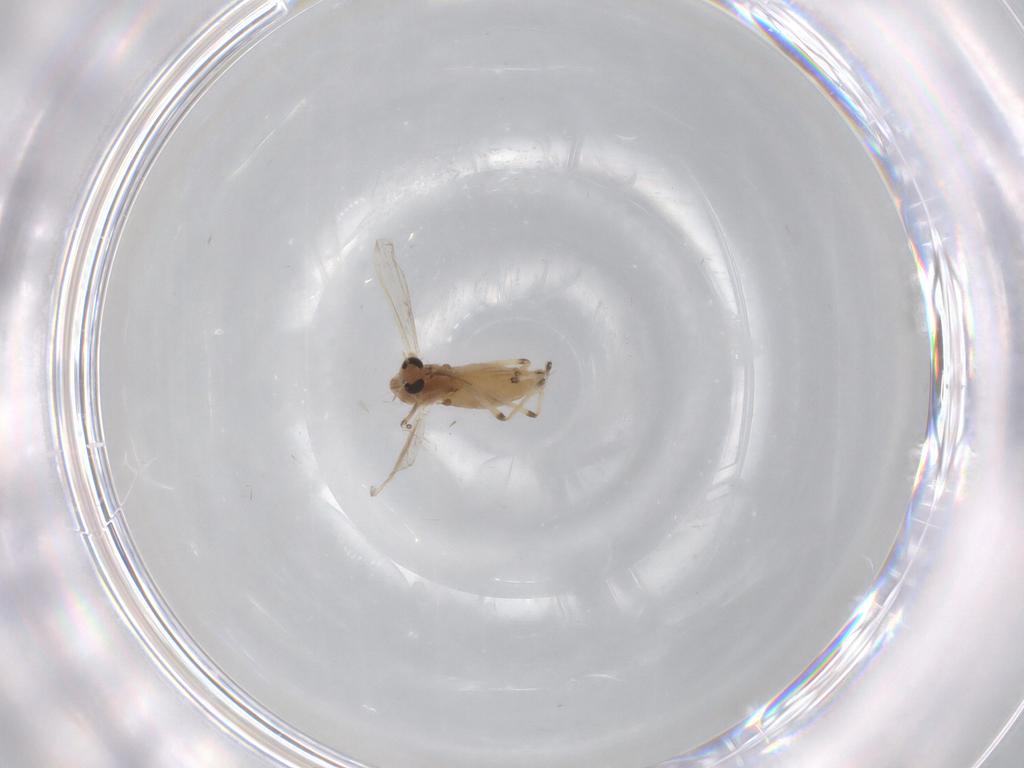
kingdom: Animalia
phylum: Arthropoda
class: Insecta
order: Diptera
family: Chironomidae
